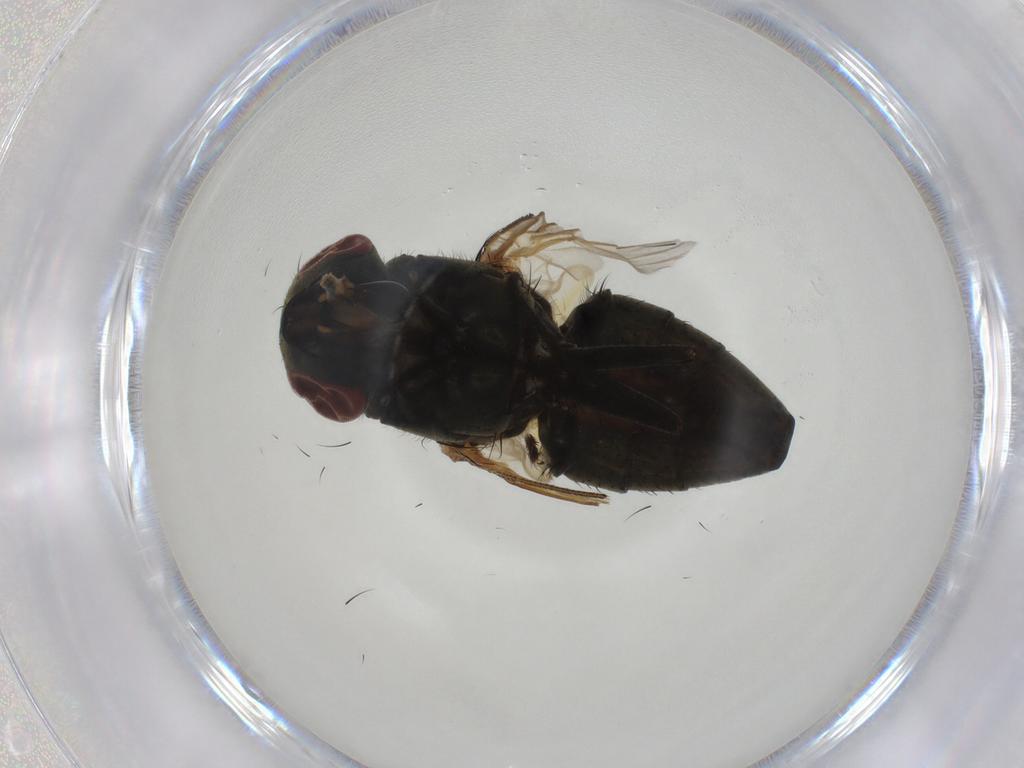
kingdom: Animalia
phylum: Arthropoda
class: Insecta
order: Diptera
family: Muscidae
